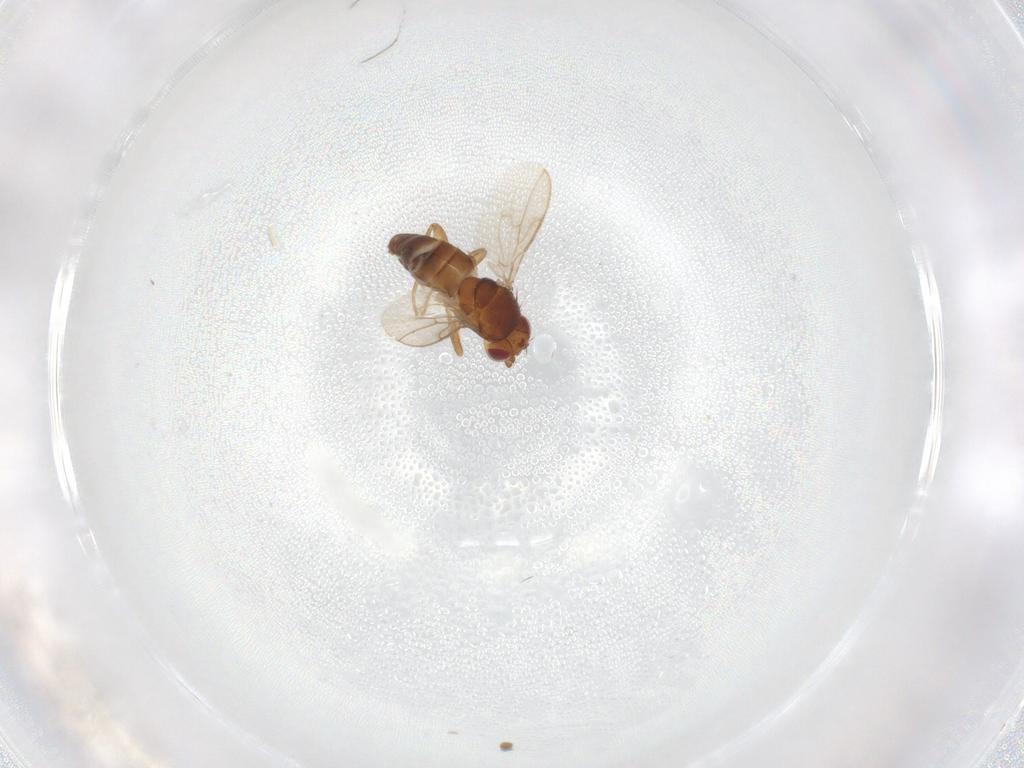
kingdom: Animalia
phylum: Arthropoda
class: Insecta
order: Diptera
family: Sphaeroceridae
